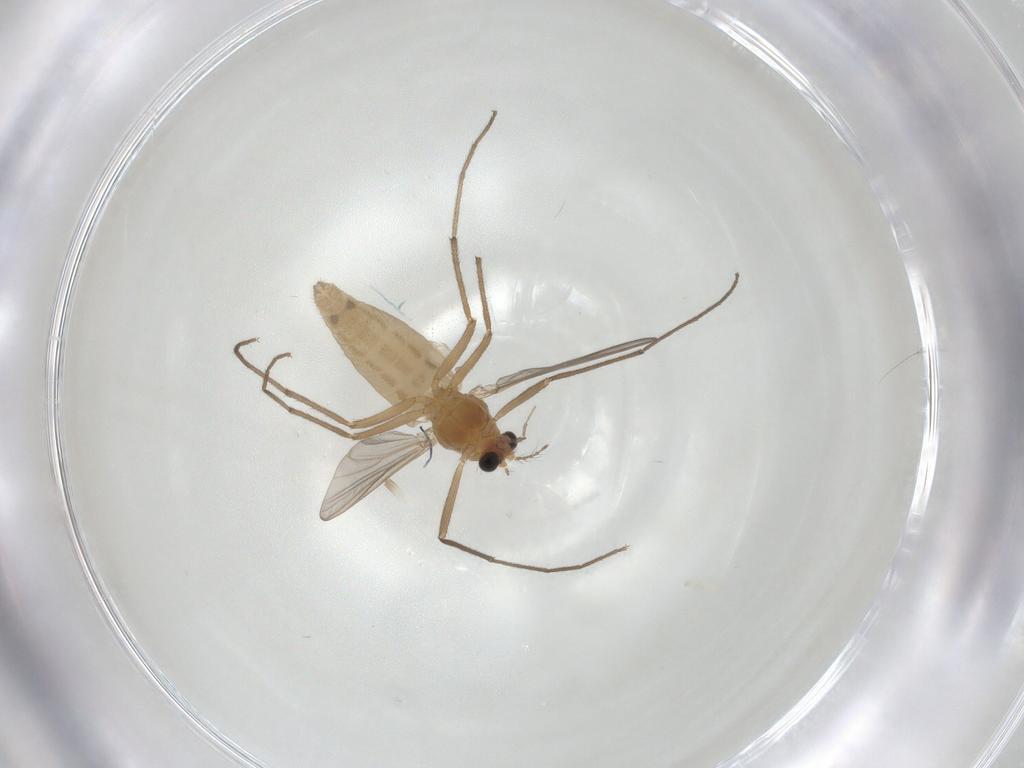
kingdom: Animalia
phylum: Arthropoda
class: Insecta
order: Diptera
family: Chironomidae
